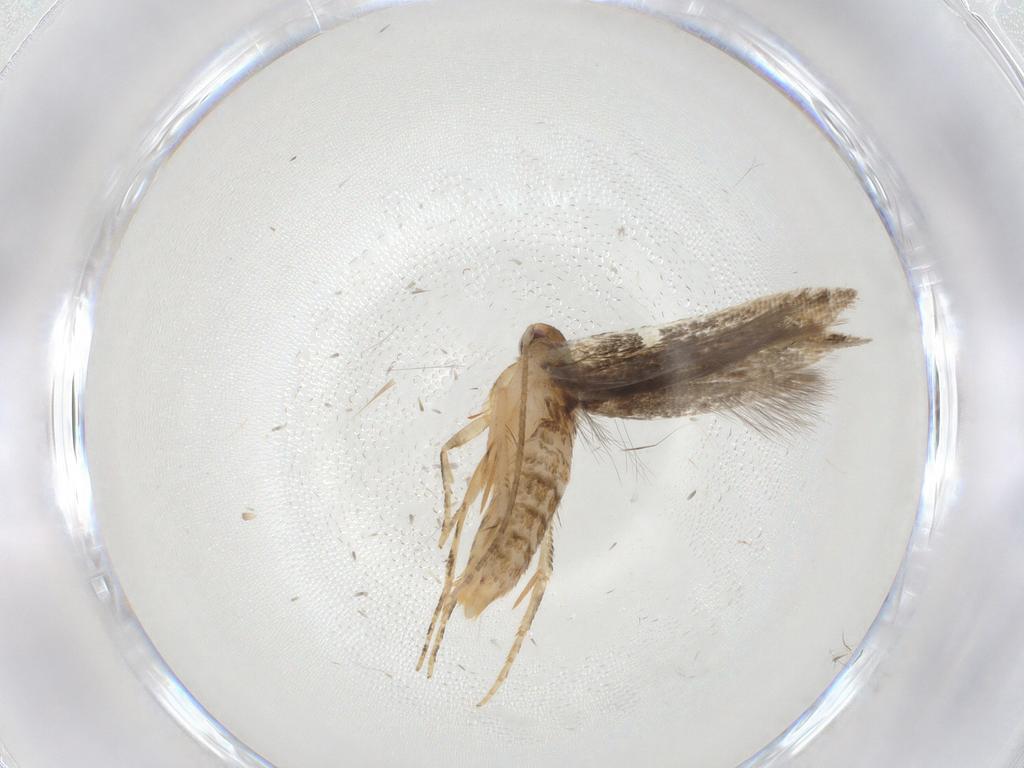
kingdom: Animalia
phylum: Arthropoda
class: Insecta
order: Lepidoptera
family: Momphidae
